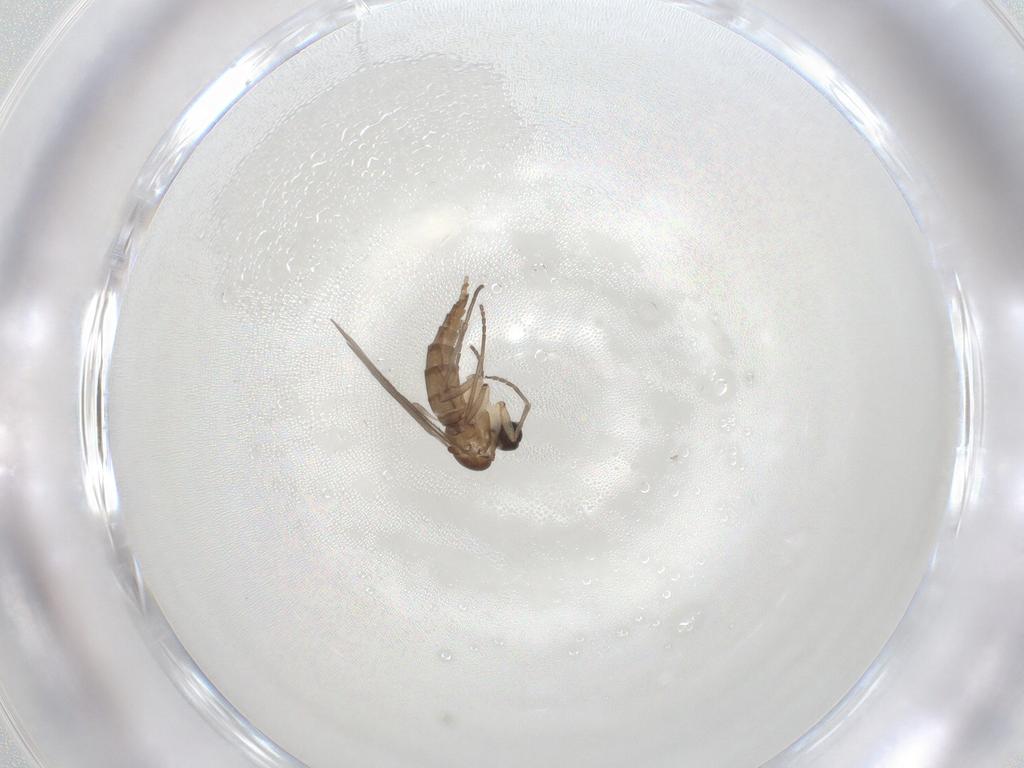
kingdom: Animalia
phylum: Arthropoda
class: Insecta
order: Diptera
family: Sciaridae
